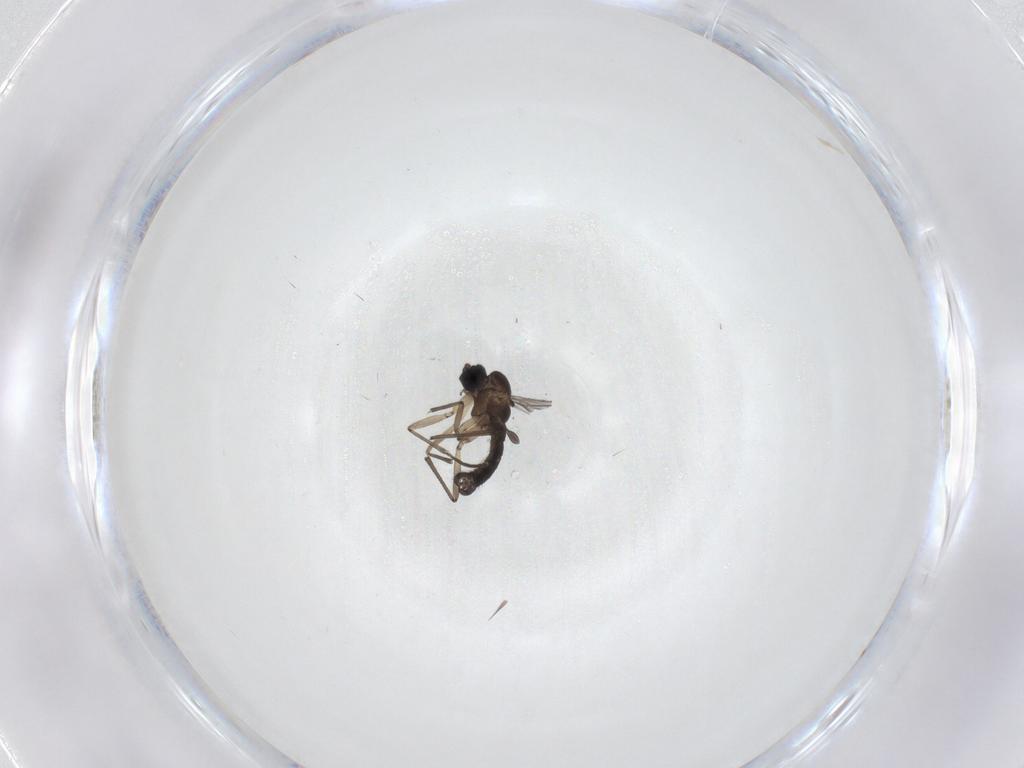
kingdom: Animalia
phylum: Arthropoda
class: Insecta
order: Diptera
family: Sciaridae
